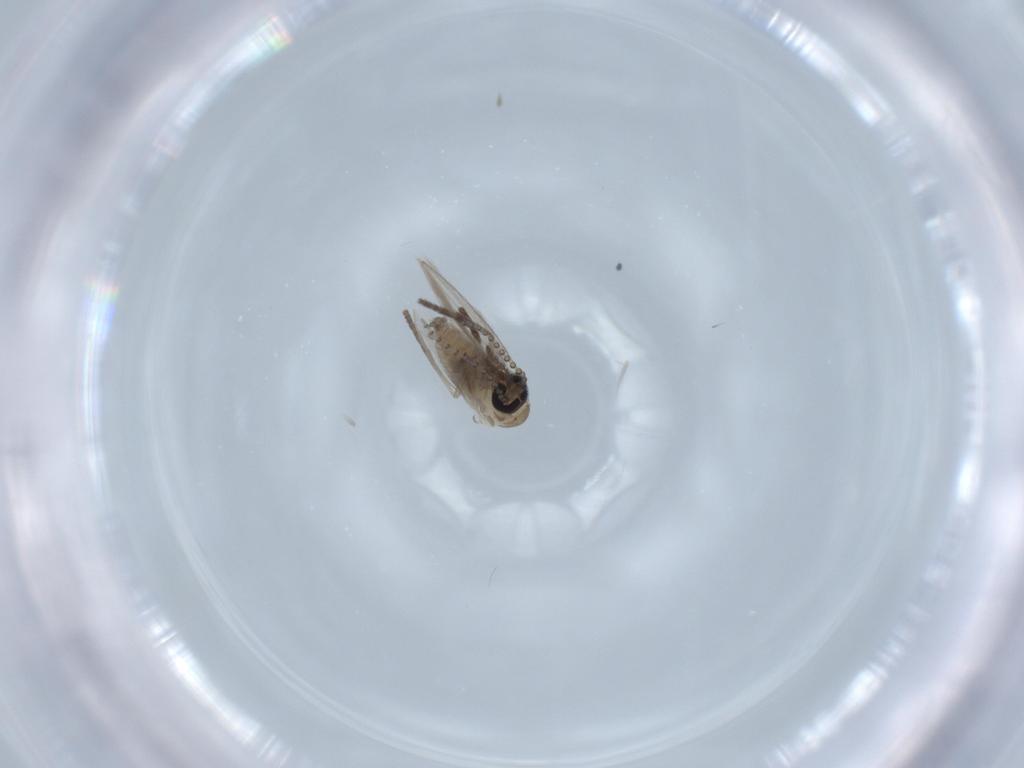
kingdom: Animalia
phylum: Arthropoda
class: Insecta
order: Diptera
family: Psychodidae
